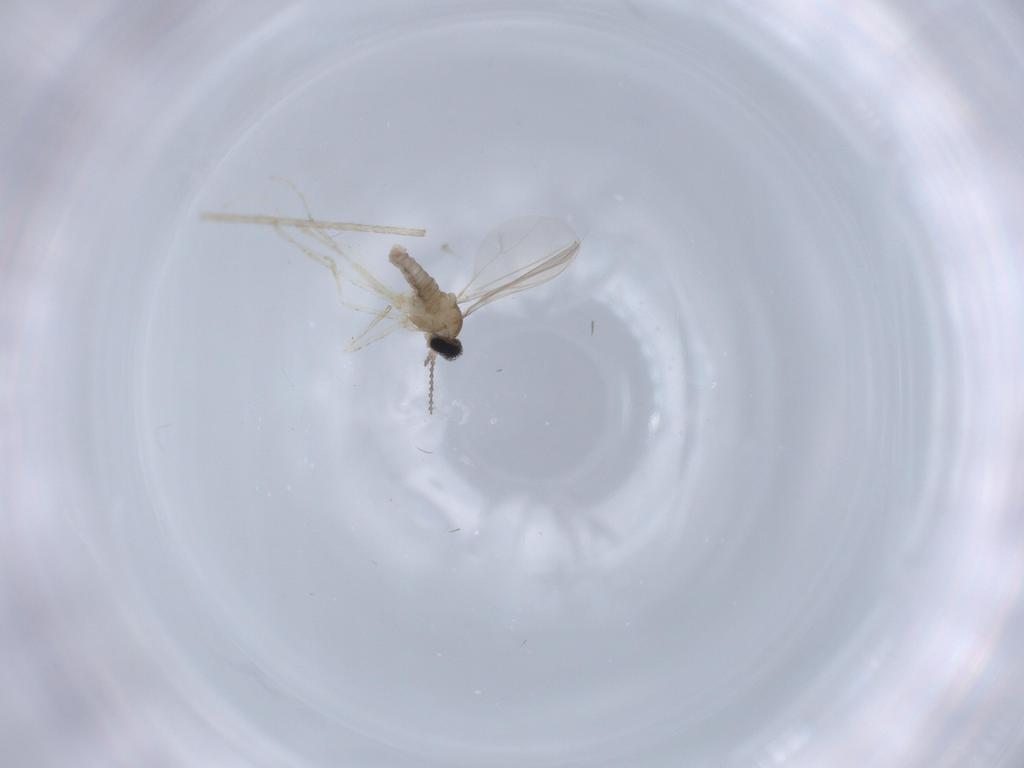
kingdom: Animalia
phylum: Arthropoda
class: Insecta
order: Diptera
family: Cecidomyiidae
